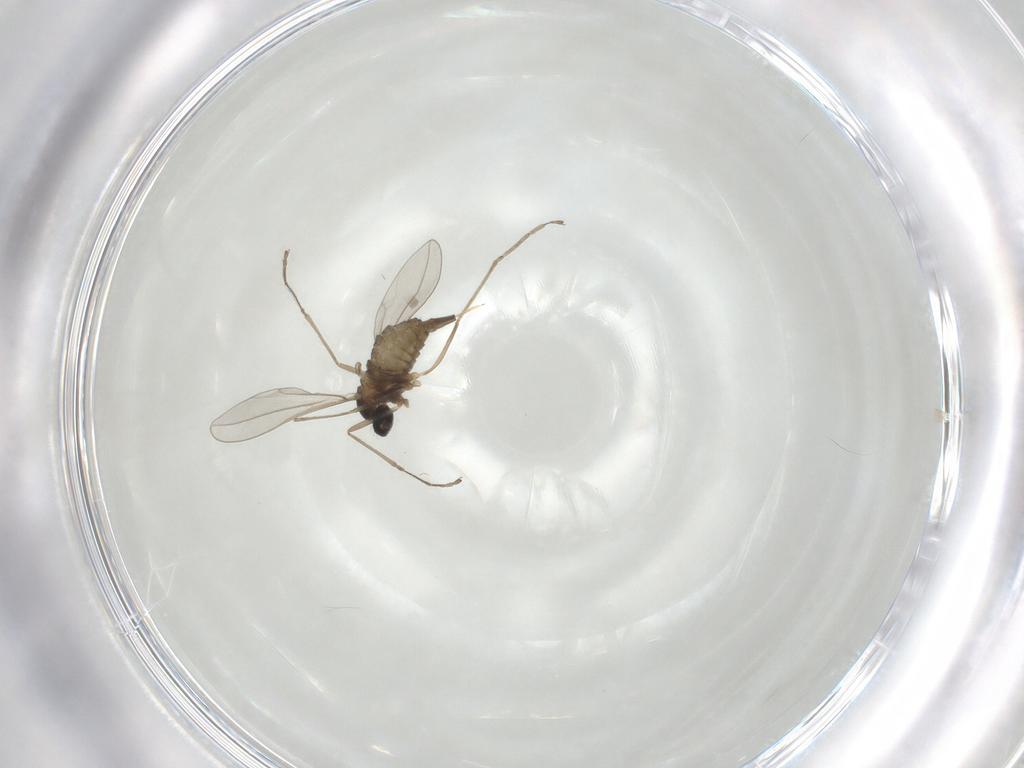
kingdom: Animalia
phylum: Arthropoda
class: Insecta
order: Diptera
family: Cecidomyiidae
